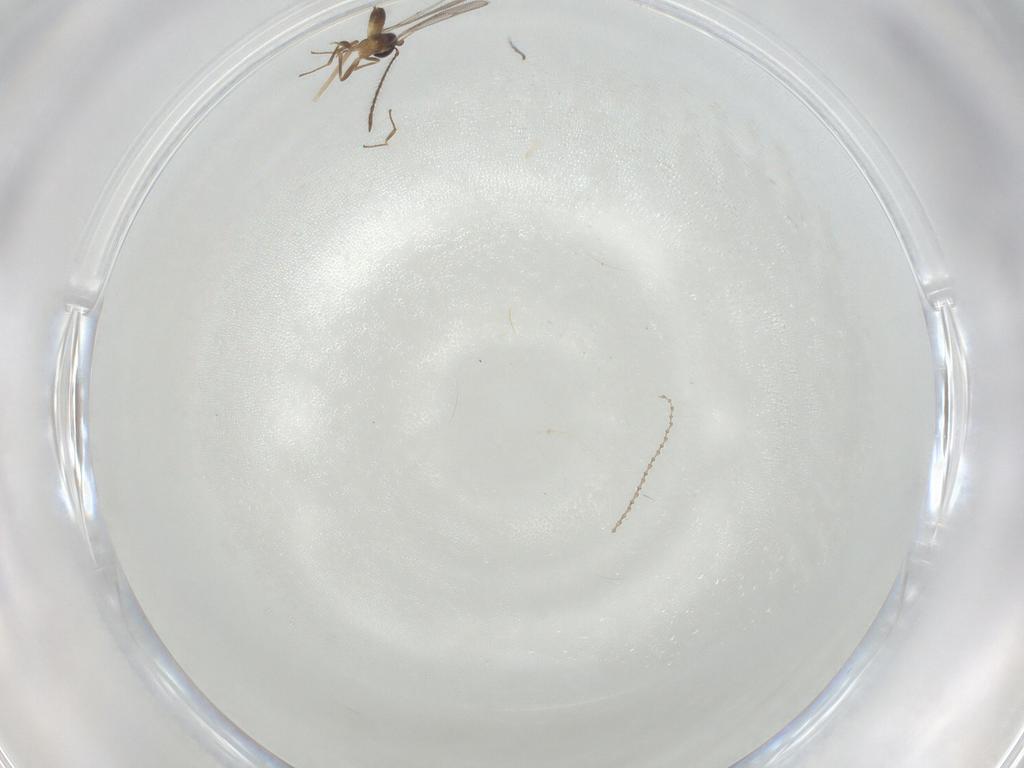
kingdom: Animalia
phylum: Arthropoda
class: Insecta
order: Diptera
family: Cecidomyiidae
